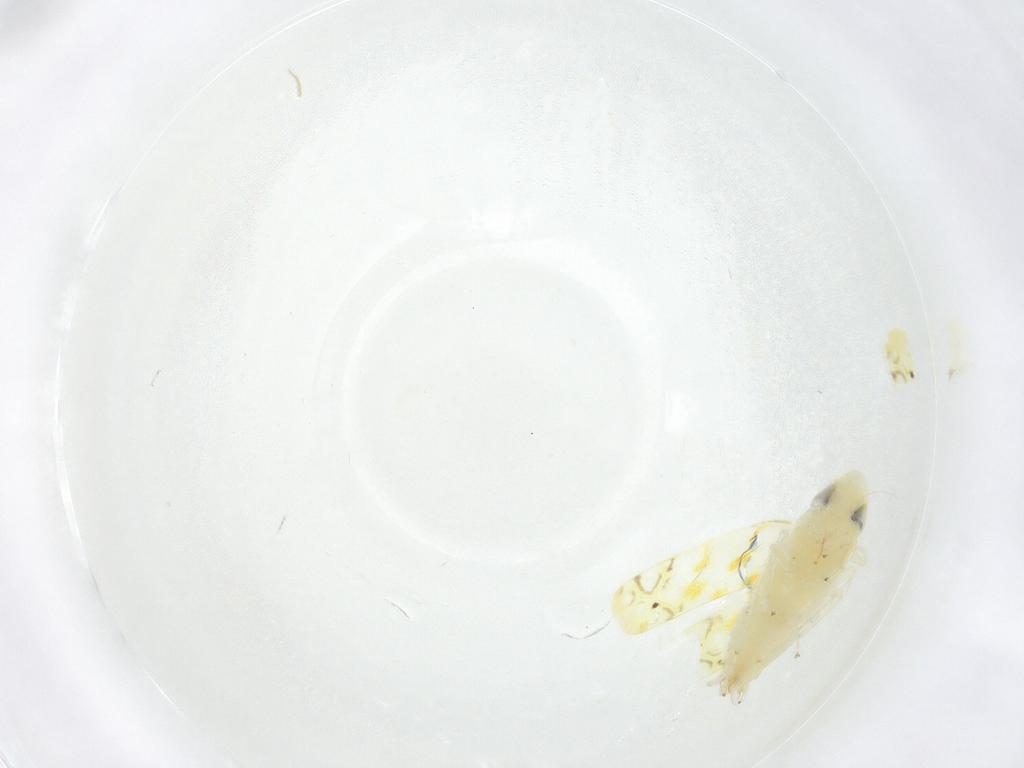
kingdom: Animalia
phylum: Arthropoda
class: Insecta
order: Hemiptera
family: Cicadellidae
